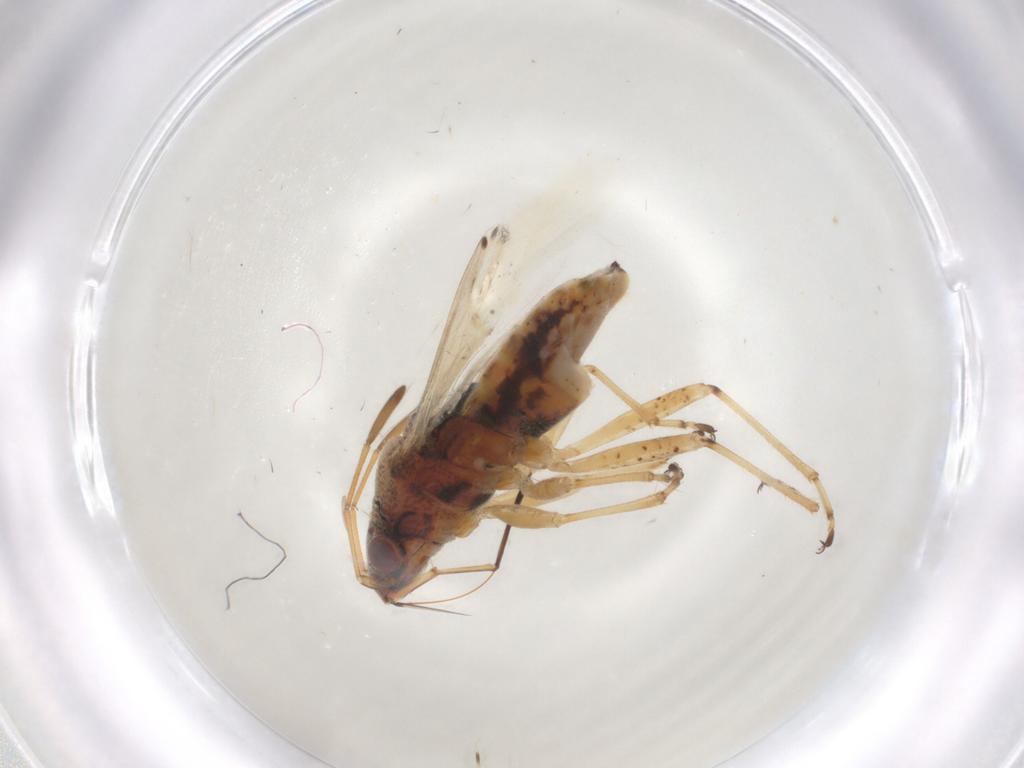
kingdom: Animalia
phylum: Arthropoda
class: Insecta
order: Hemiptera
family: Lygaeidae
